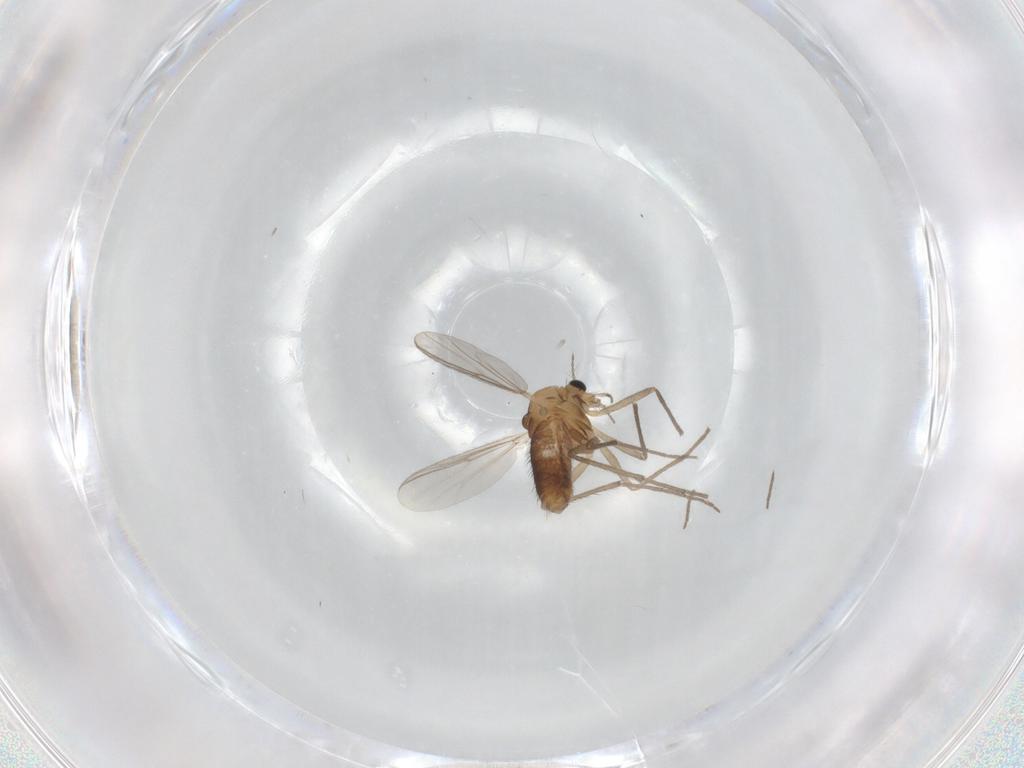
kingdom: Animalia
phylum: Arthropoda
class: Insecta
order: Diptera
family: Chironomidae
